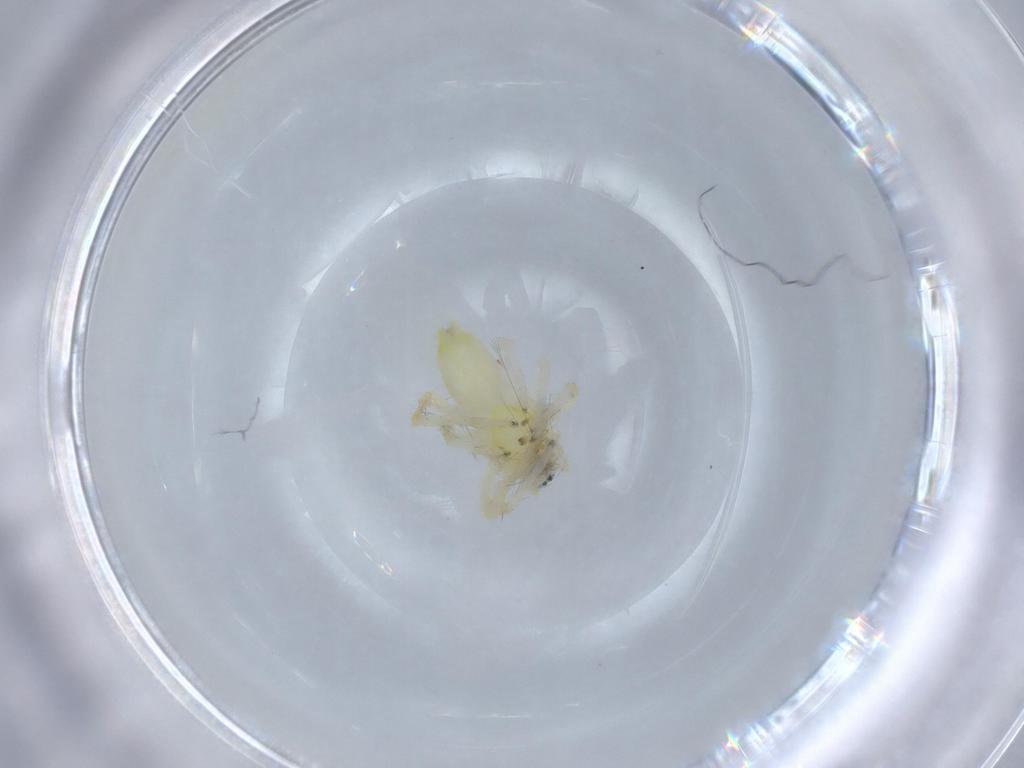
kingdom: Animalia
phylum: Arthropoda
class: Arachnida
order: Araneae
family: Anyphaenidae
